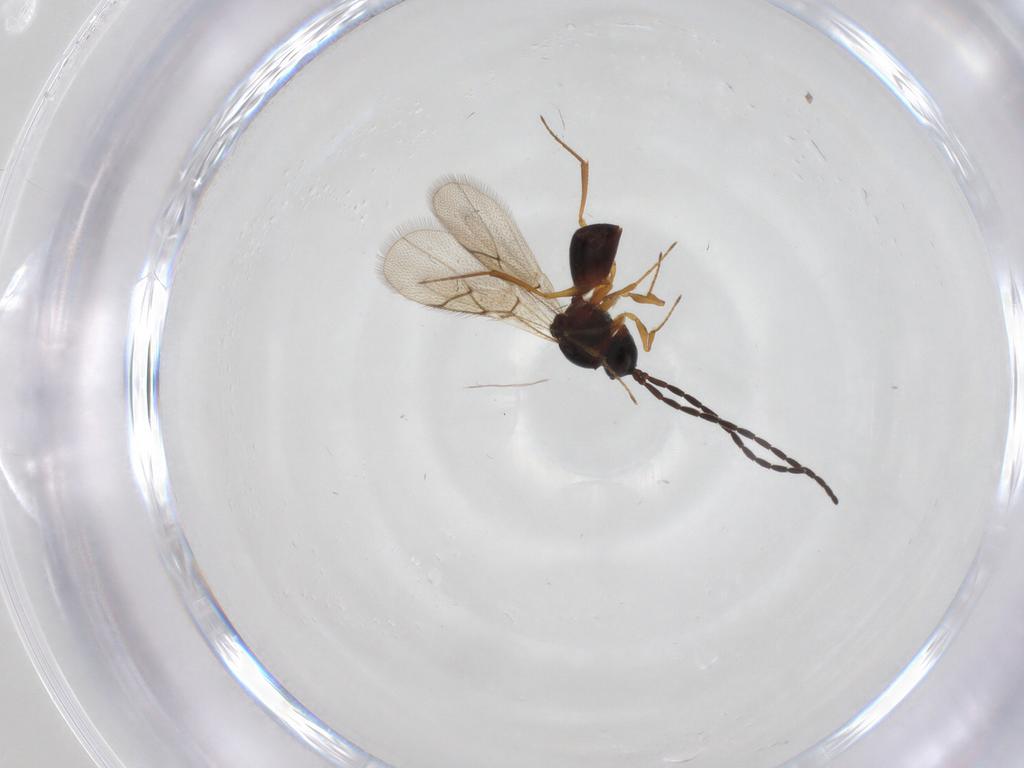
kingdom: Animalia
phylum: Arthropoda
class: Insecta
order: Hymenoptera
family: Figitidae
